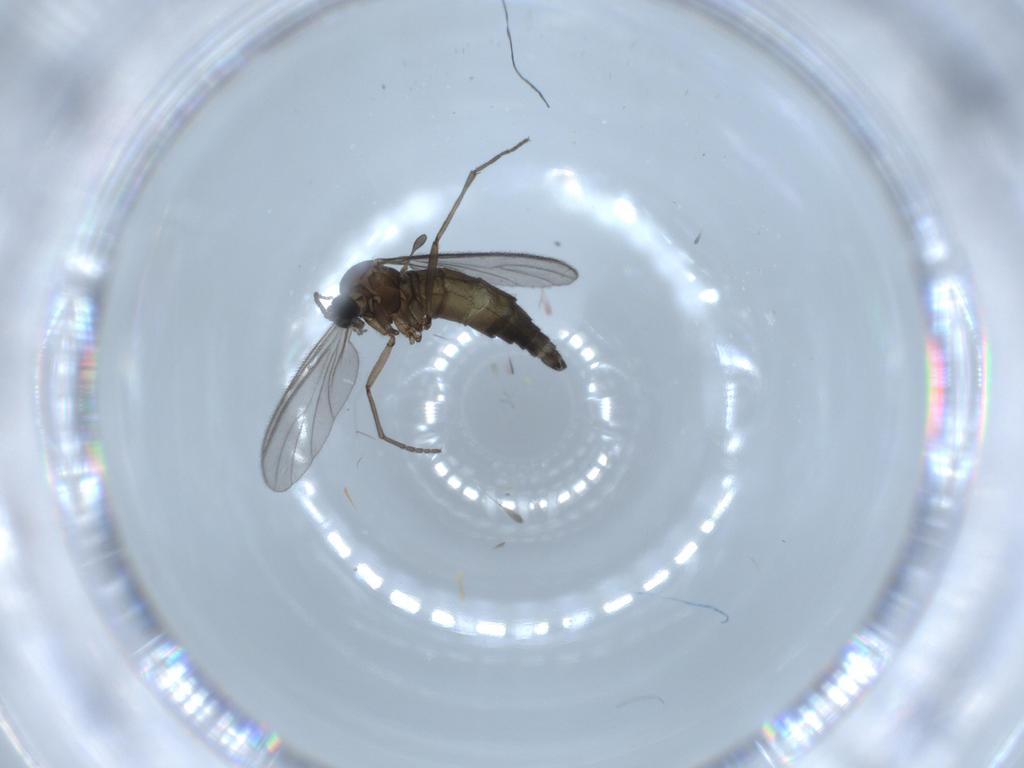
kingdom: Animalia
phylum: Arthropoda
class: Insecta
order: Diptera
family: Sciaridae
